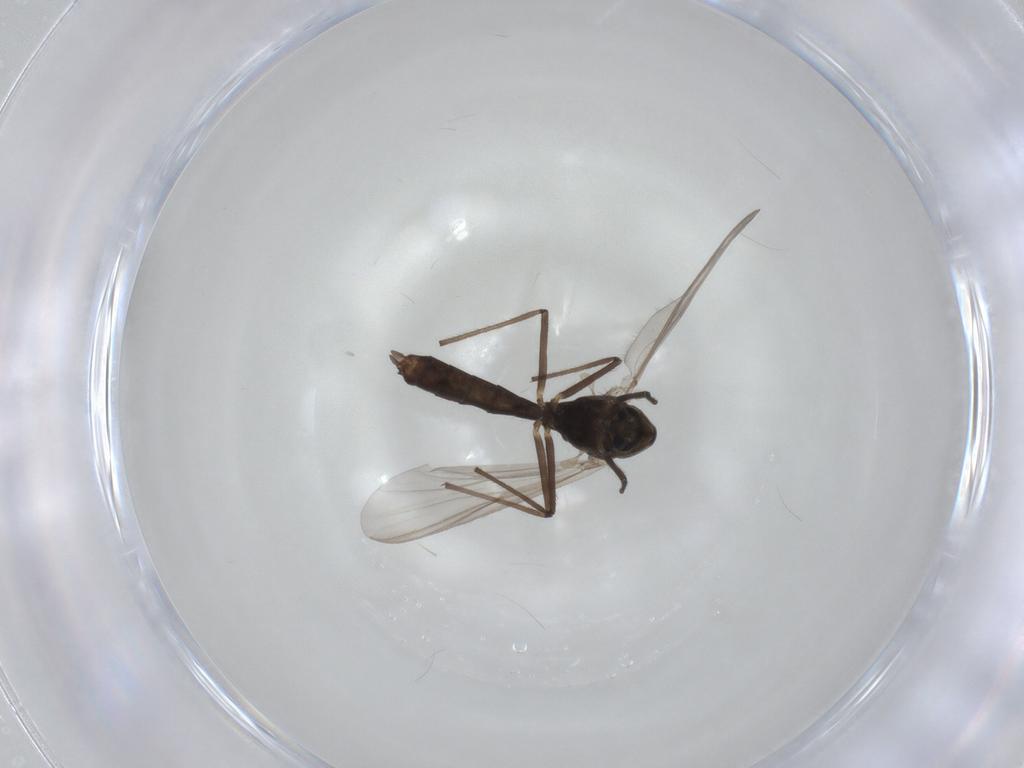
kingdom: Animalia
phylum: Arthropoda
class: Insecta
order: Diptera
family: Chironomidae
